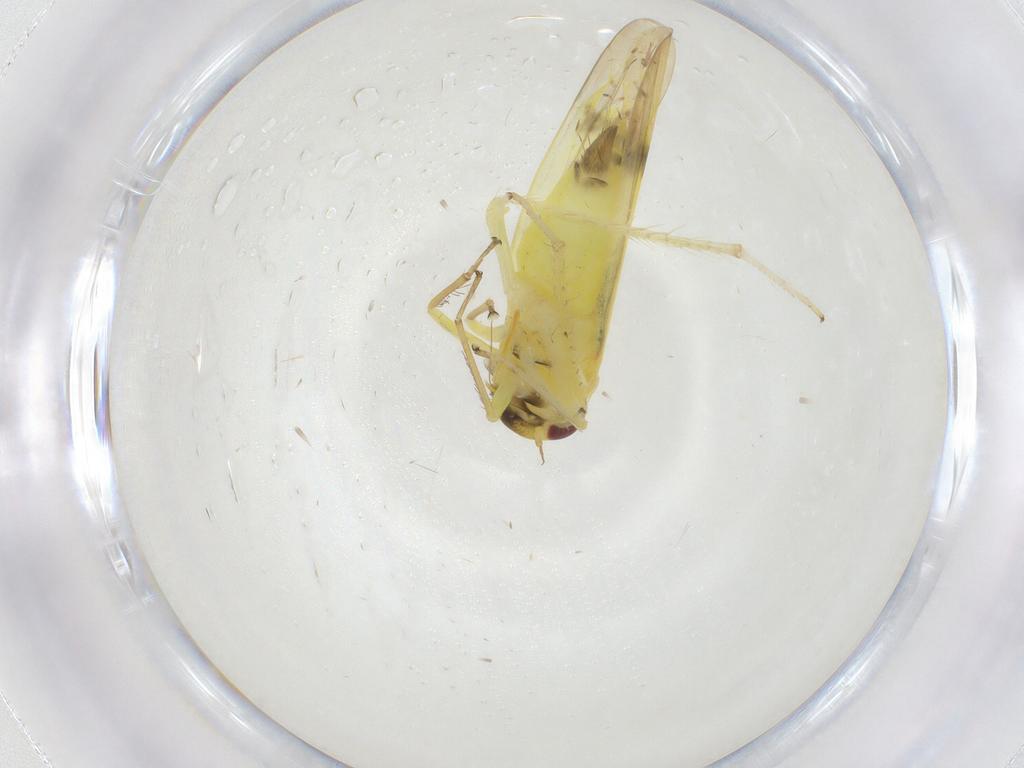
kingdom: Animalia
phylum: Arthropoda
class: Insecta
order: Hemiptera
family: Cicadellidae
